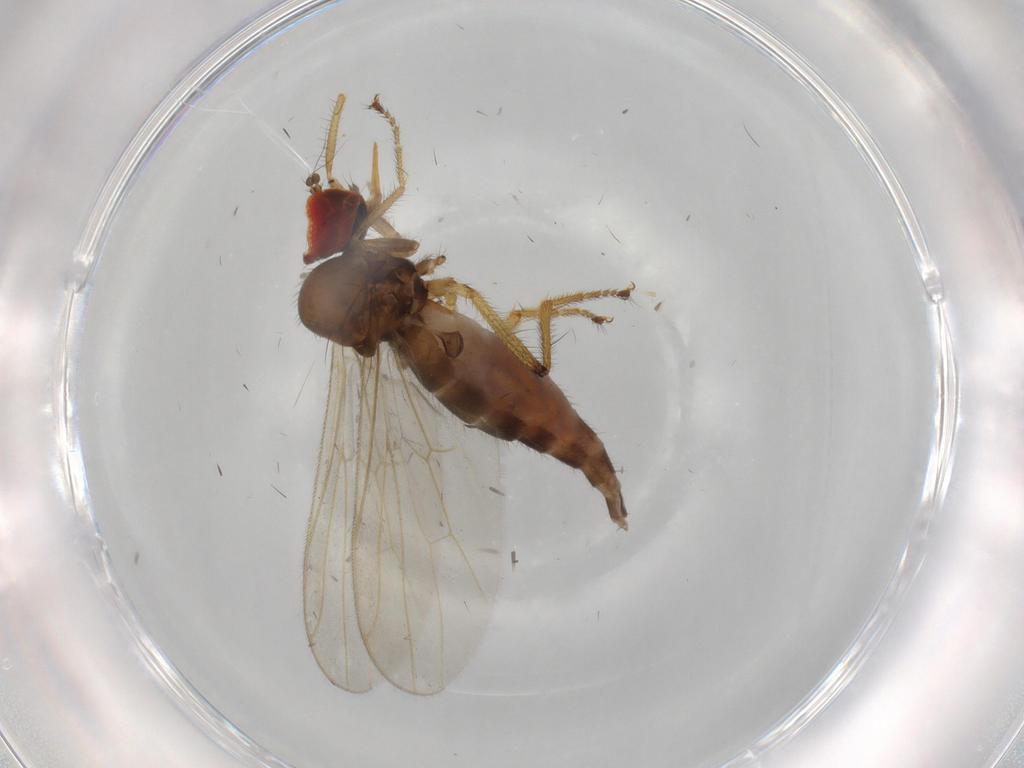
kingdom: Animalia
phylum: Arthropoda
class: Insecta
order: Diptera
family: Hybotidae
